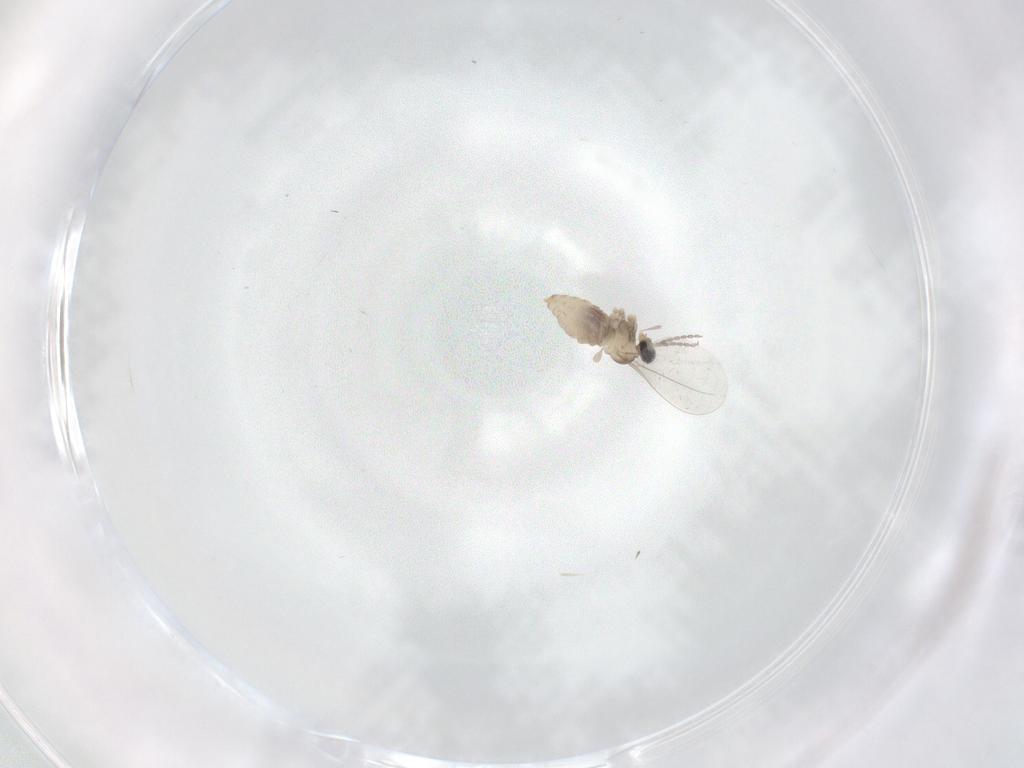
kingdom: Animalia
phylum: Arthropoda
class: Insecta
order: Diptera
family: Cecidomyiidae
